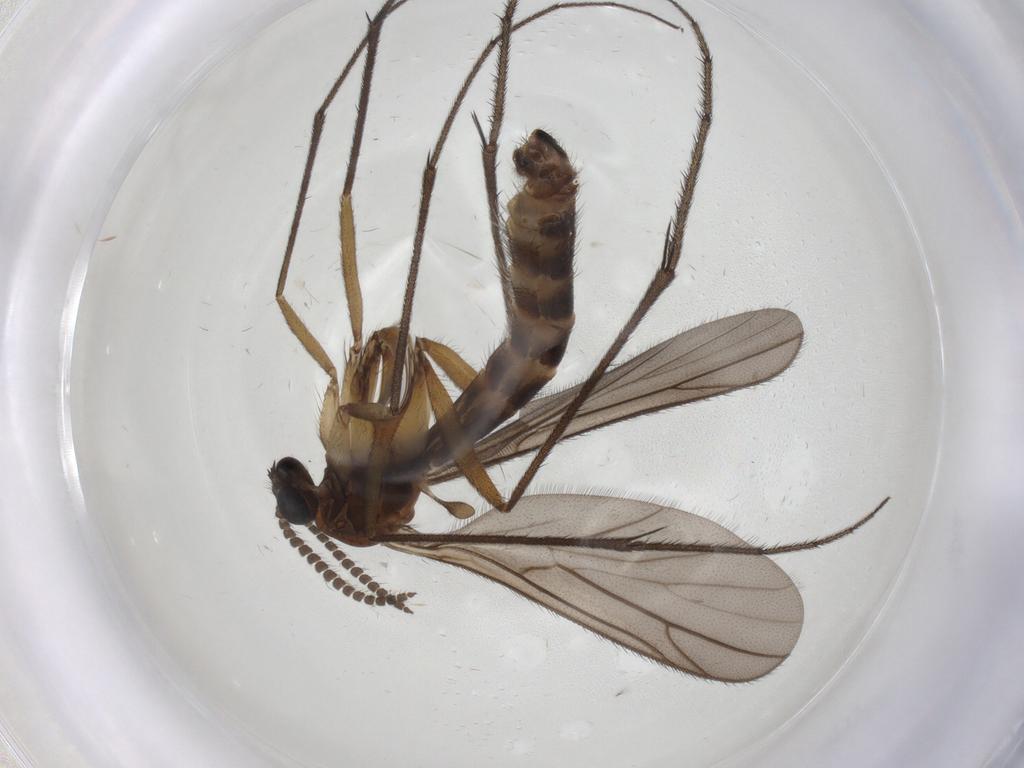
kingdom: Animalia
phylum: Arthropoda
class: Insecta
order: Diptera
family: Ditomyiidae
